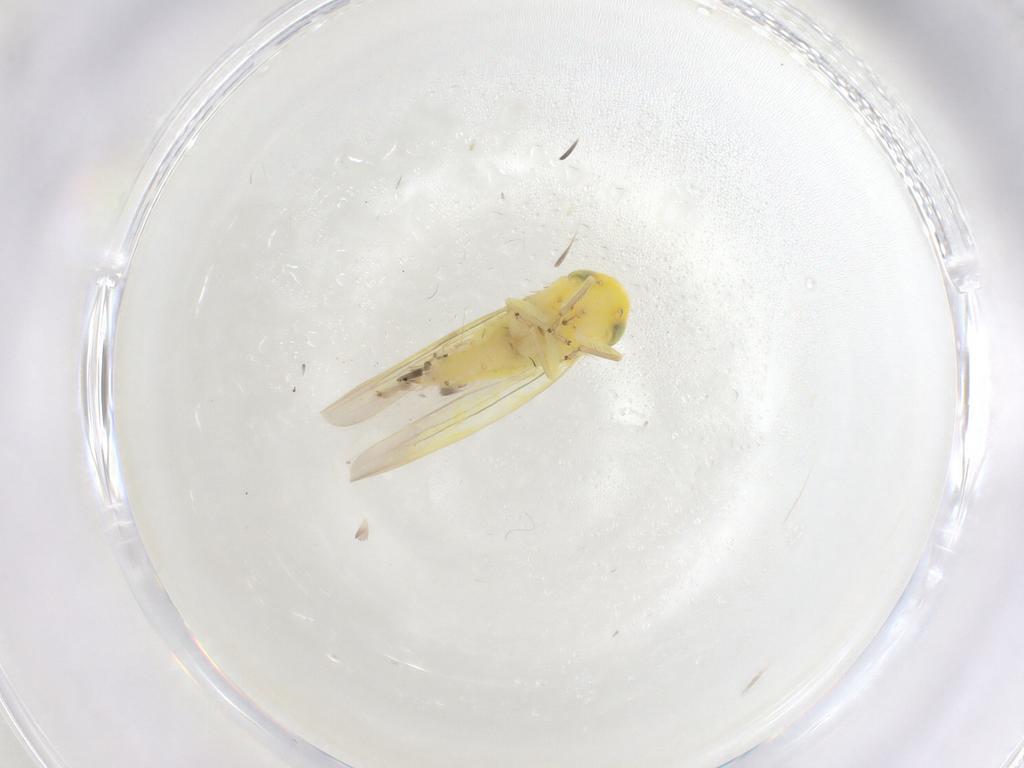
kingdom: Animalia
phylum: Arthropoda
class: Insecta
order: Hemiptera
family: Cicadellidae
